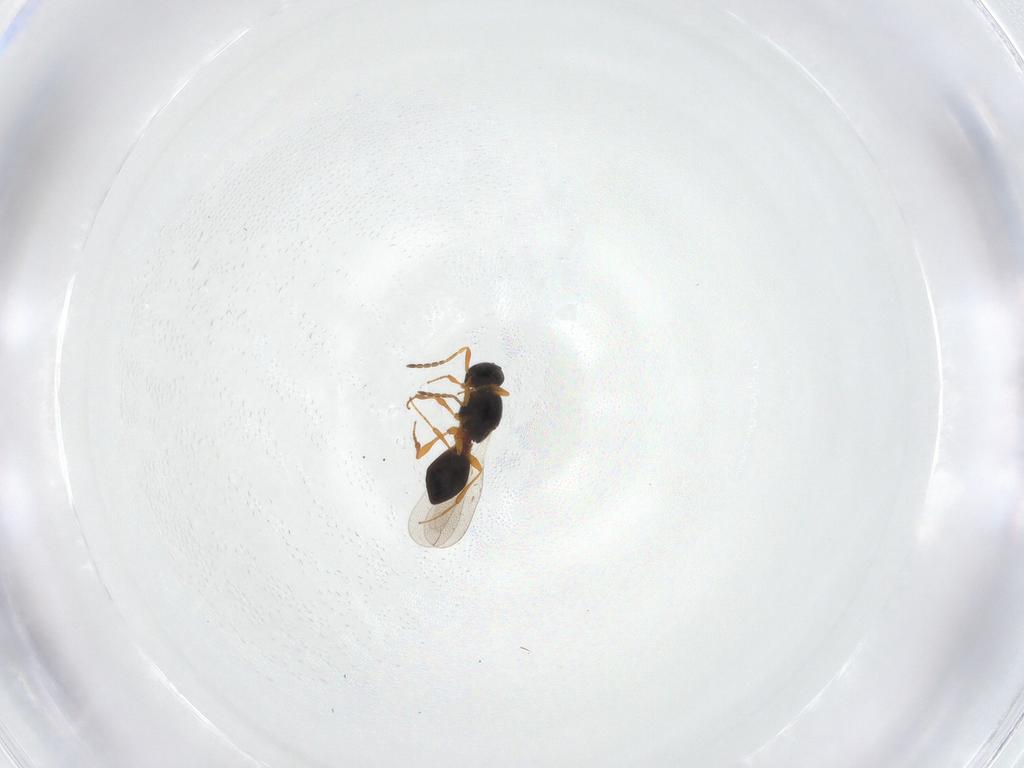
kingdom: Animalia
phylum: Arthropoda
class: Insecta
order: Hymenoptera
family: Platygastridae
